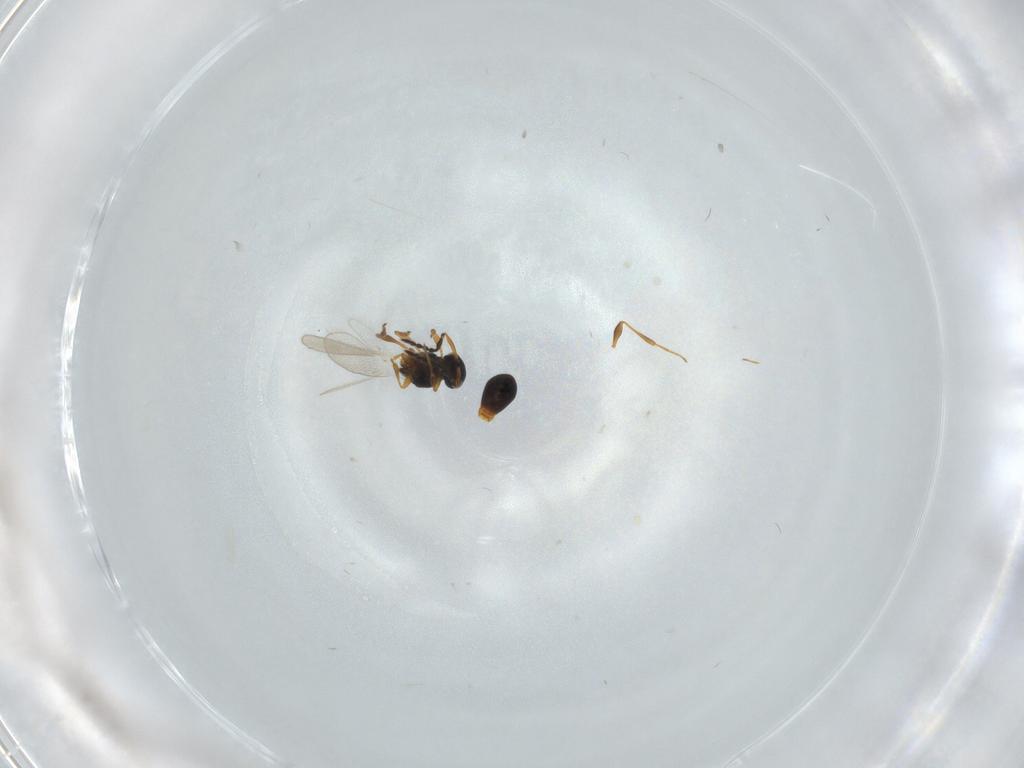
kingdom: Animalia
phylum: Arthropoda
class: Insecta
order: Hymenoptera
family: Platygastridae
